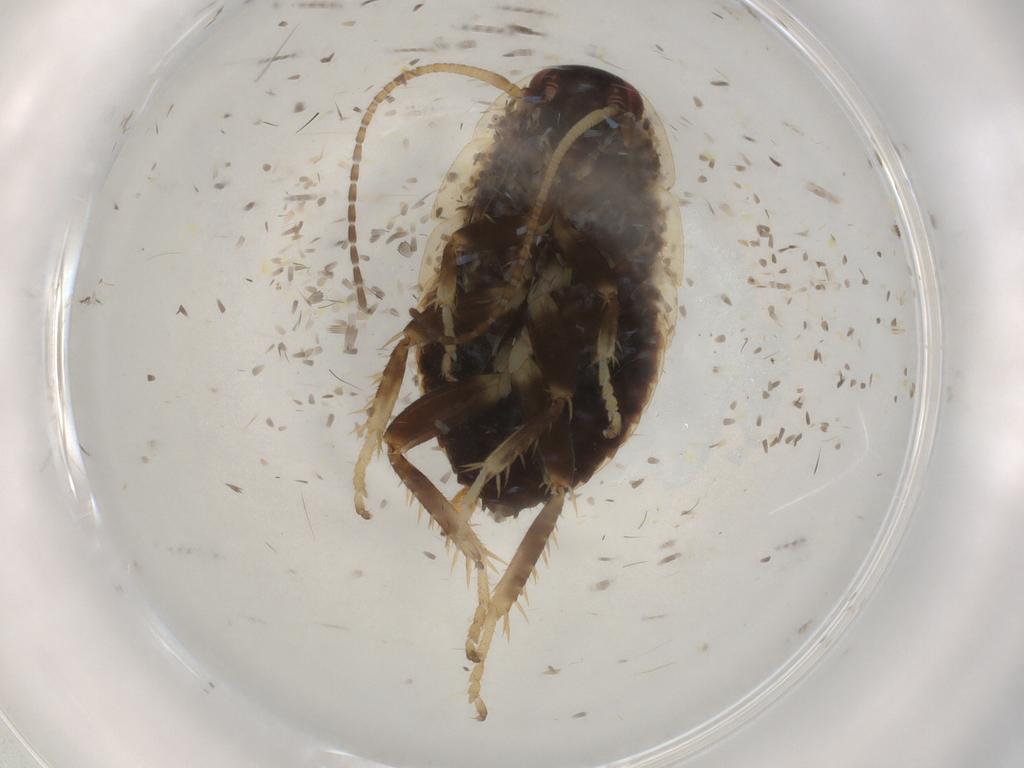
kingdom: Animalia
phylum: Arthropoda
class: Insecta
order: Blattodea
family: Ectobiidae
